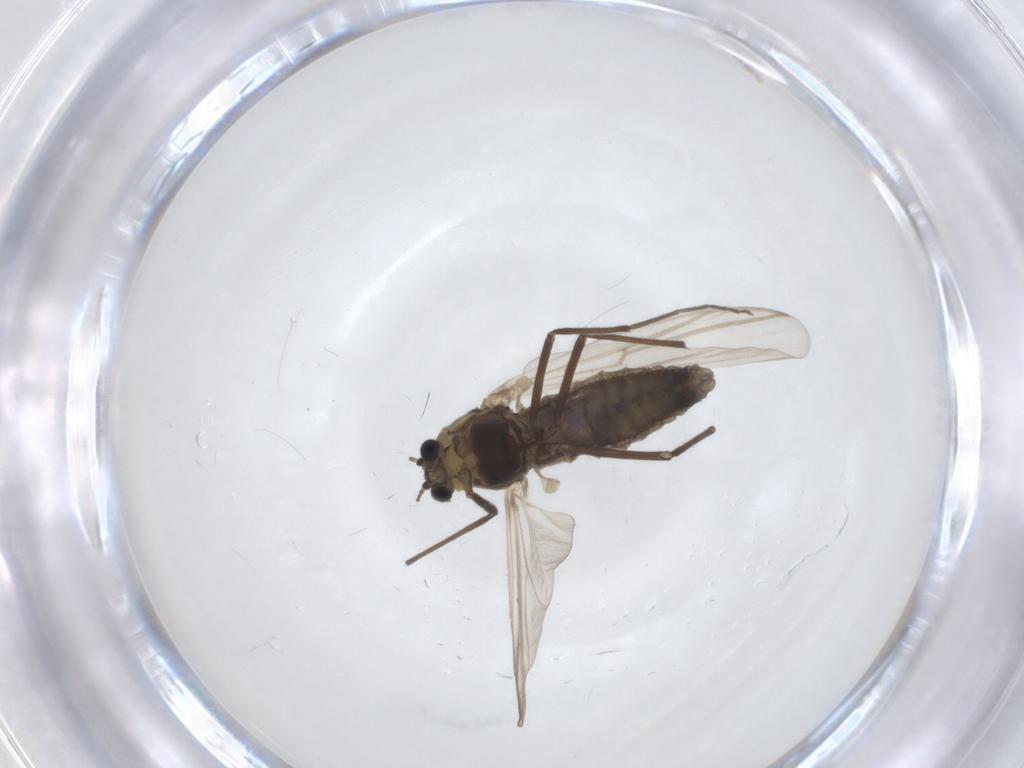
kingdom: Animalia
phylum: Arthropoda
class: Insecta
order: Diptera
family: Chironomidae
